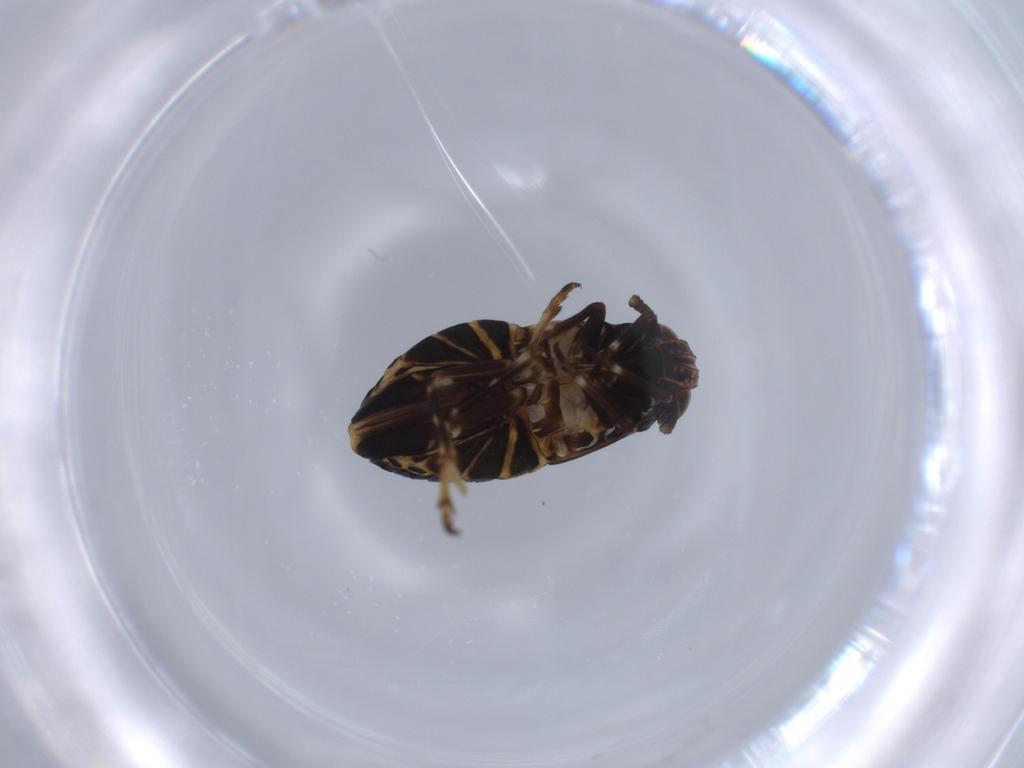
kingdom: Animalia
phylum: Arthropoda
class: Insecta
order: Hemiptera
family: Delphacidae
